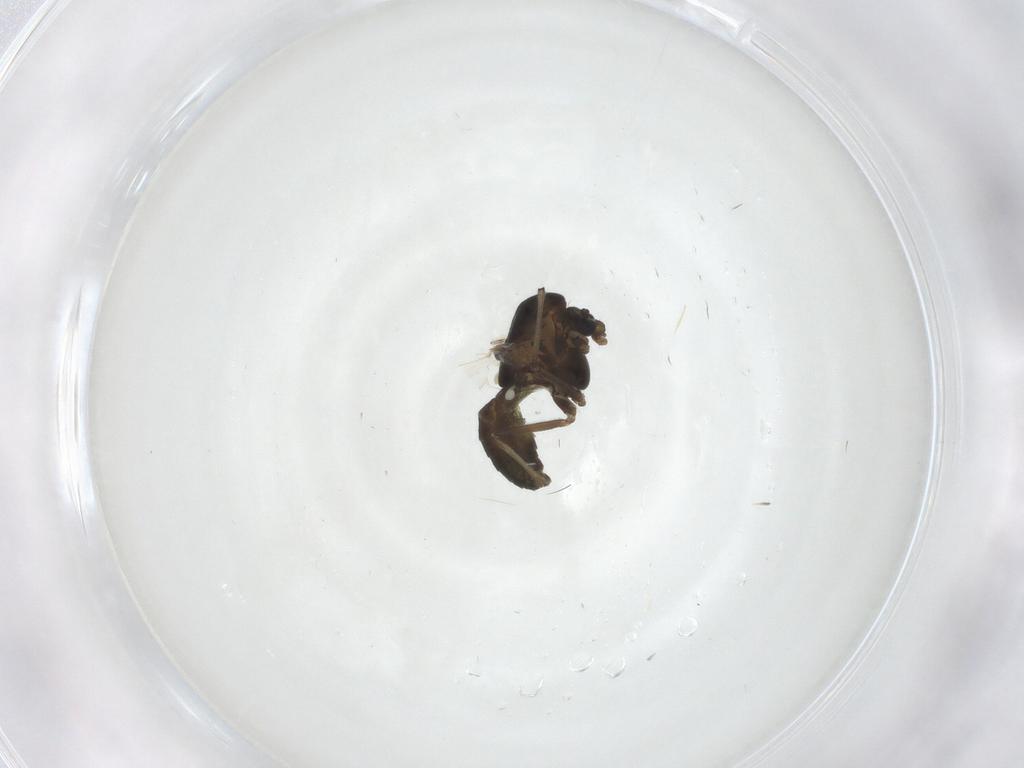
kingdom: Animalia
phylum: Arthropoda
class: Insecta
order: Diptera
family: Chironomidae
